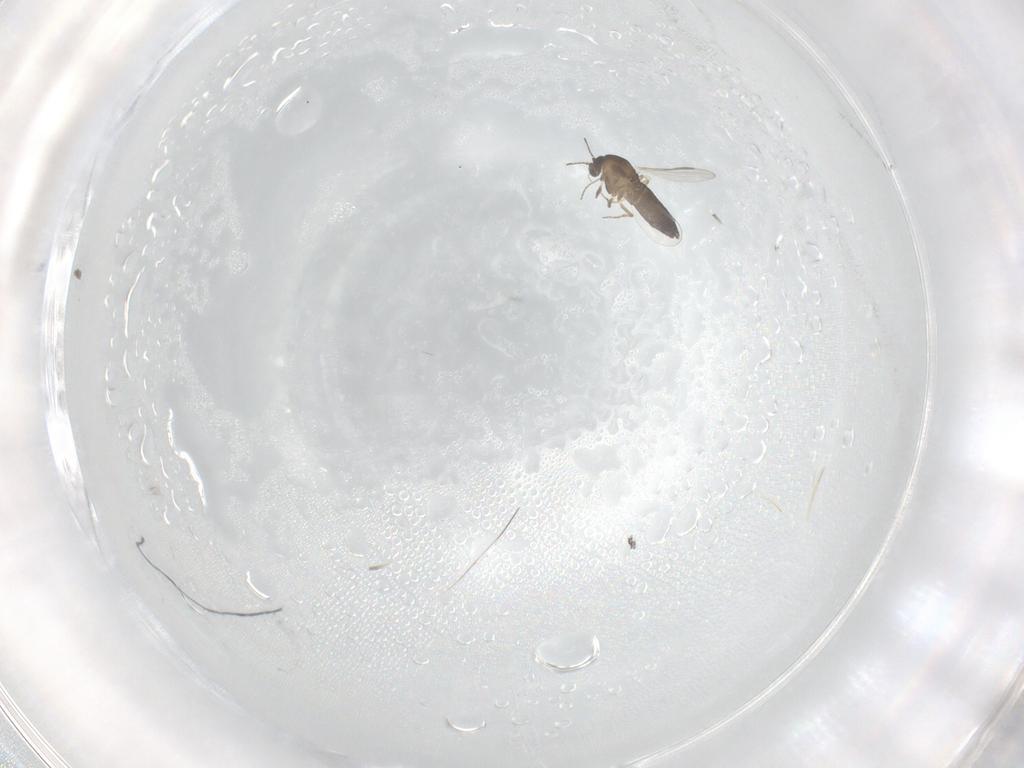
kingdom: Animalia
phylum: Arthropoda
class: Insecta
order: Diptera
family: Chironomidae
